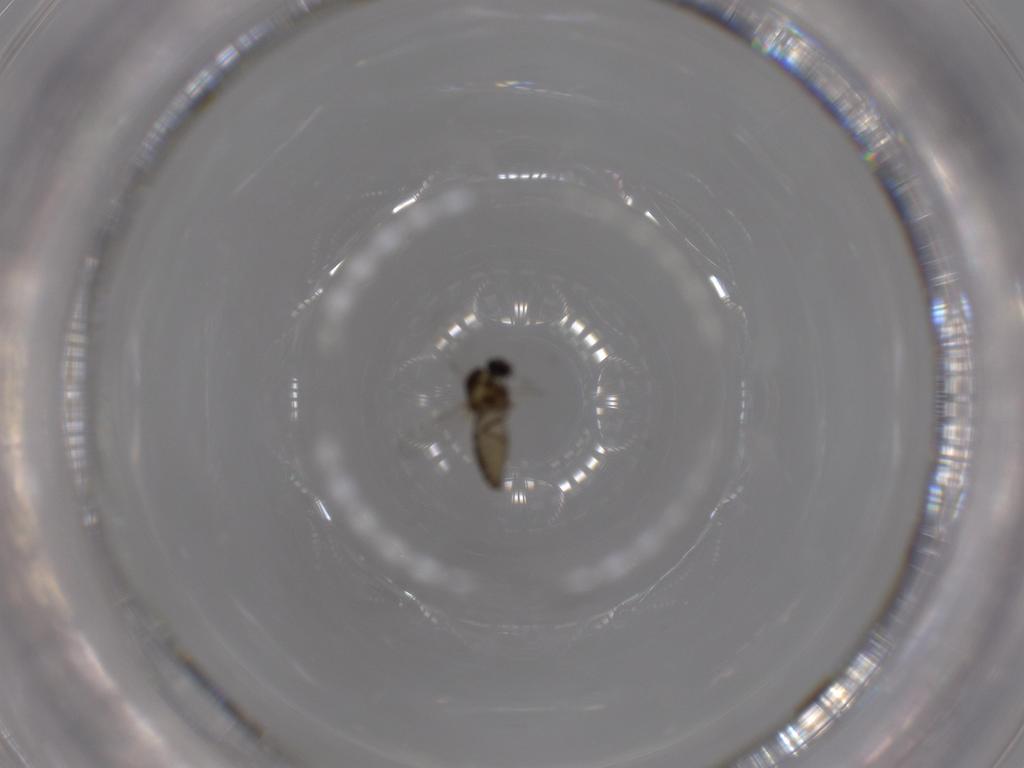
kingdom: Animalia
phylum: Arthropoda
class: Insecta
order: Diptera
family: Ceratopogonidae
